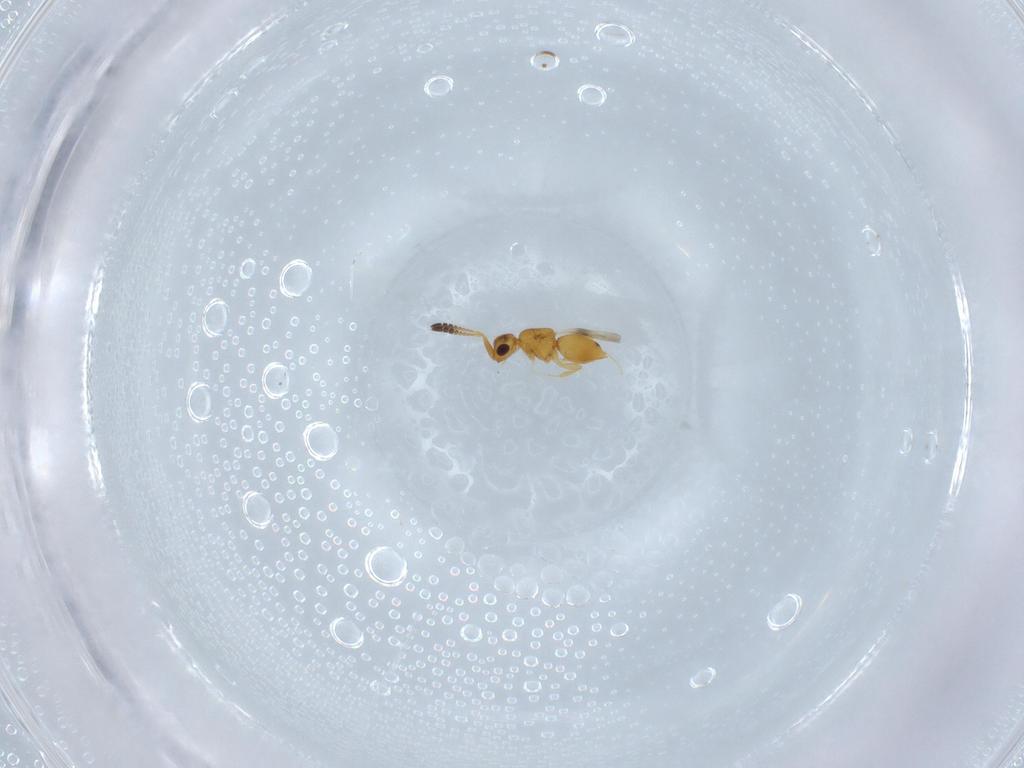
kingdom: Animalia
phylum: Arthropoda
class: Insecta
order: Hymenoptera
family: Ceraphronidae
